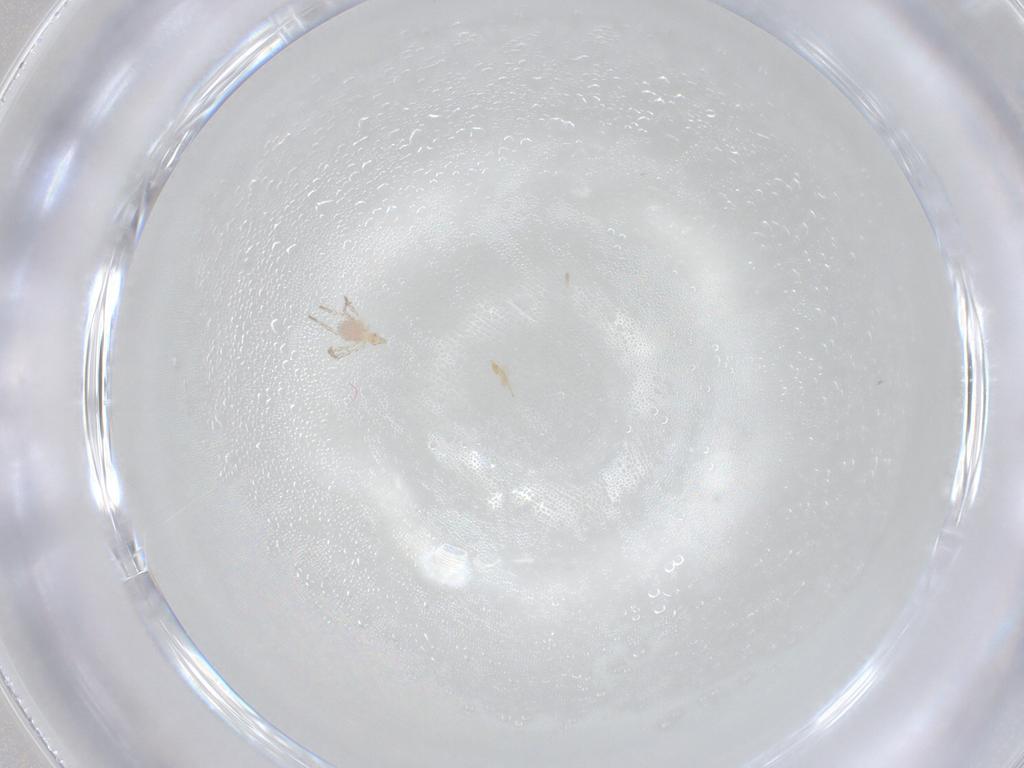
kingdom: Animalia
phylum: Arthropoda
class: Arachnida
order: Trombidiformes
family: Erythraeidae
